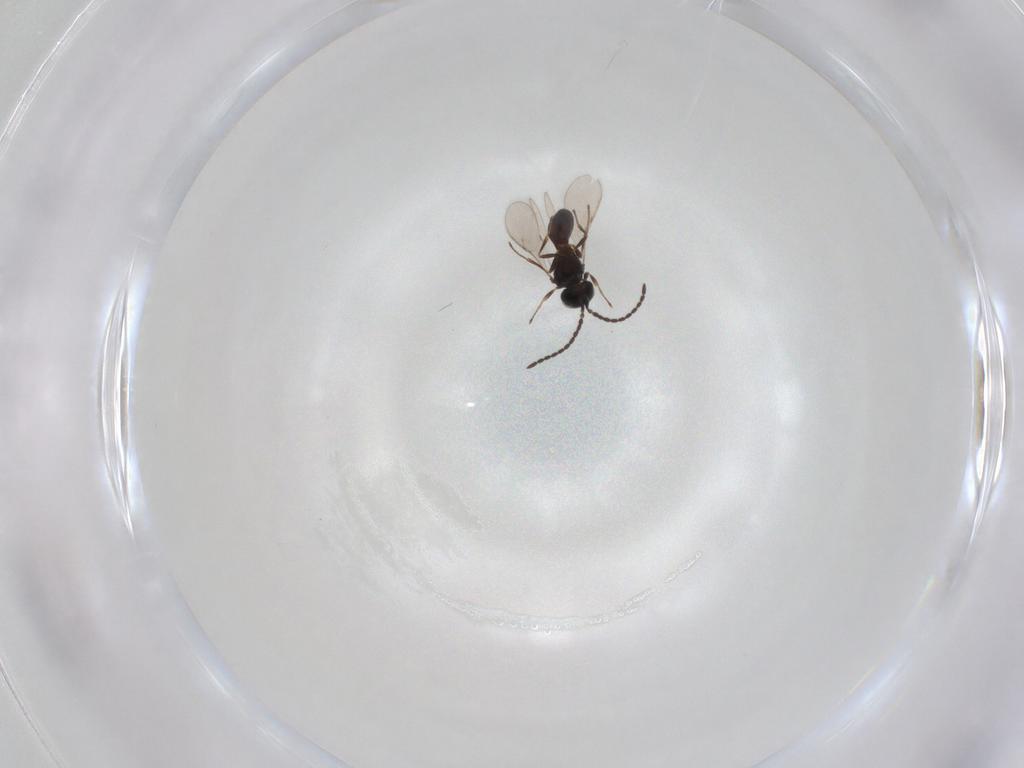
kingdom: Animalia
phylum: Arthropoda
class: Insecta
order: Hymenoptera
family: Scelionidae
